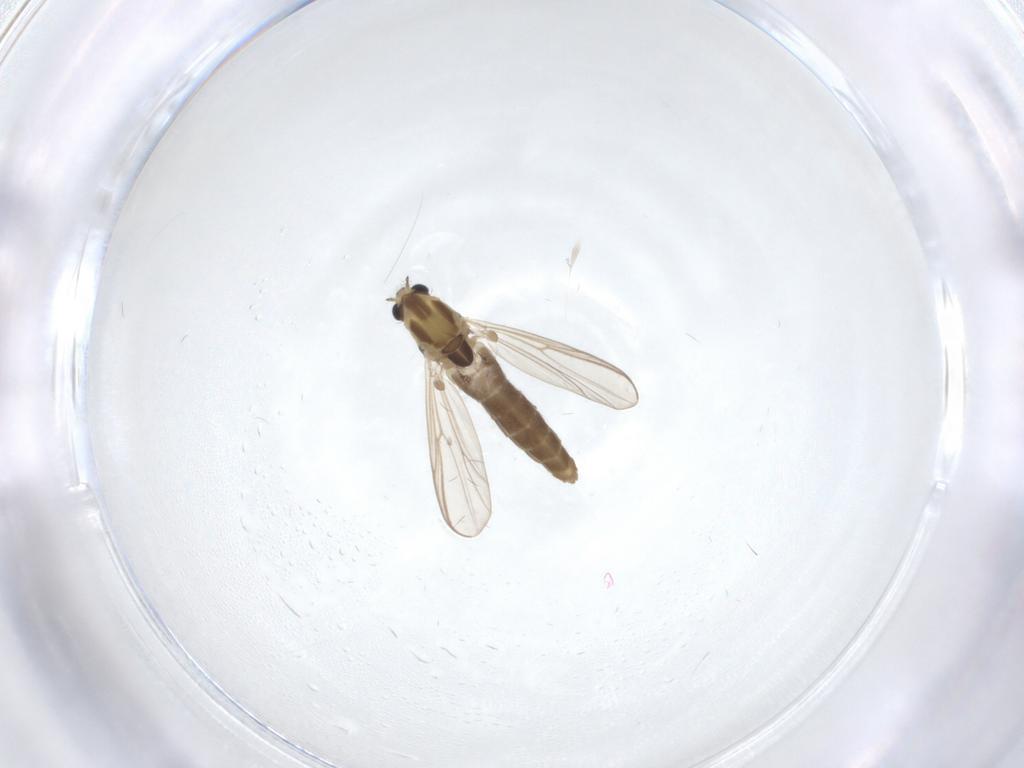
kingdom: Animalia
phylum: Arthropoda
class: Insecta
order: Diptera
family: Chironomidae
